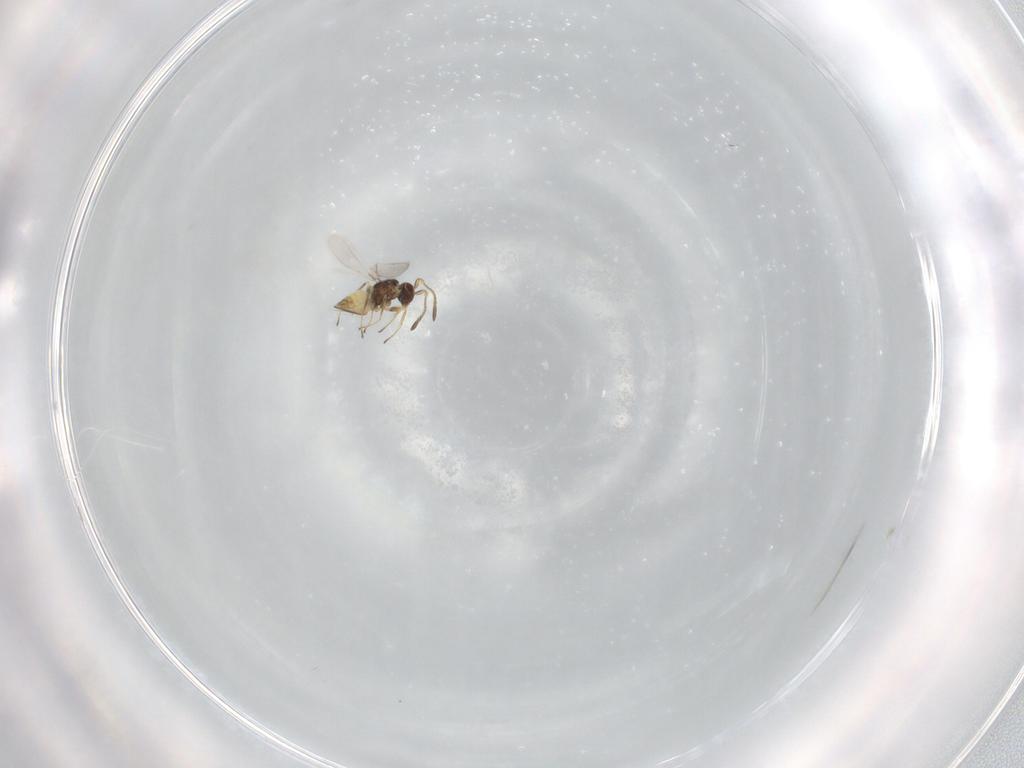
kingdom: Animalia
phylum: Arthropoda
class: Insecta
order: Hymenoptera
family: Mymaridae
